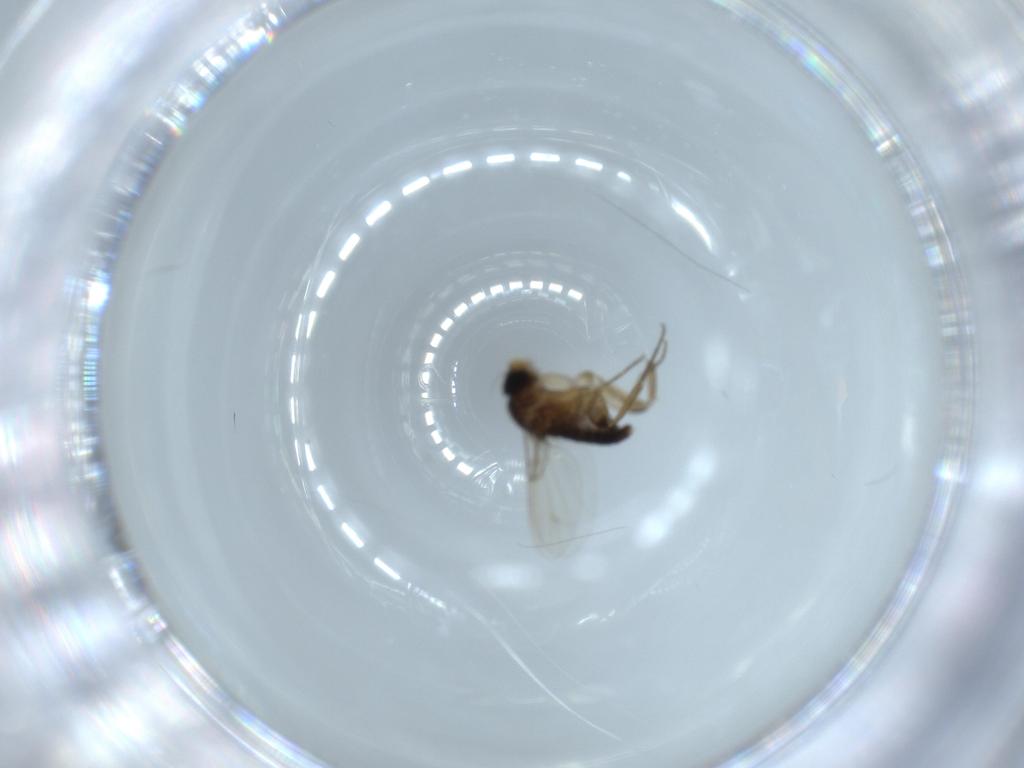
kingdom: Animalia
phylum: Arthropoda
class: Insecta
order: Diptera
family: Phoridae
